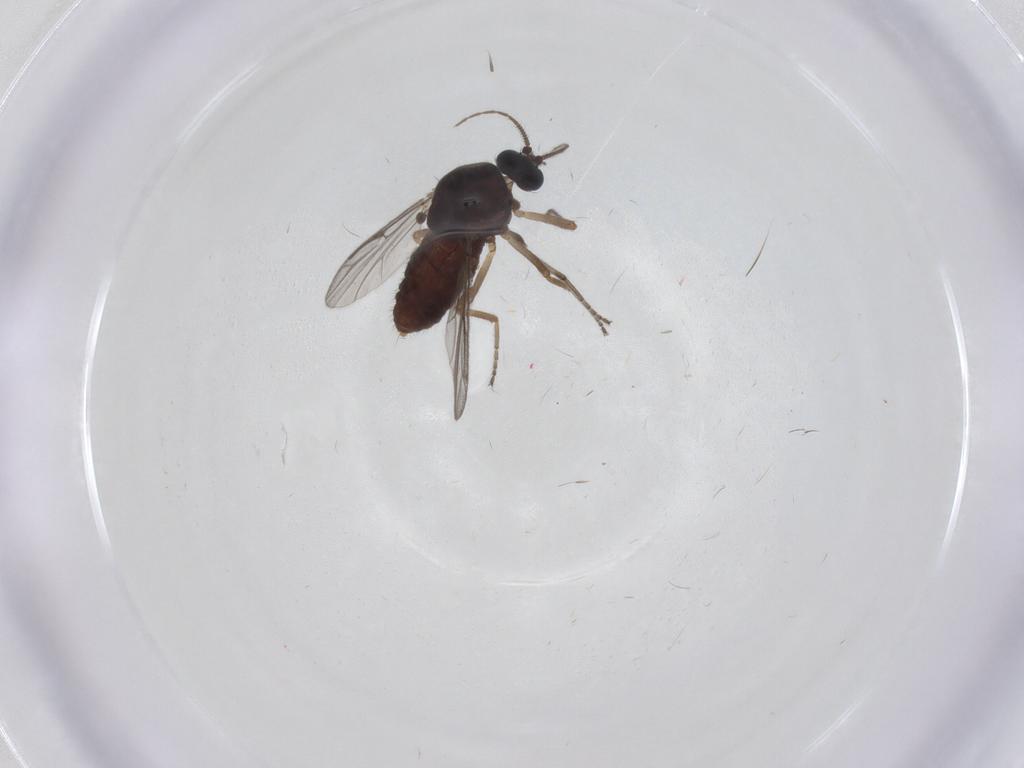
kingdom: Animalia
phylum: Arthropoda
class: Insecta
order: Diptera
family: Ceratopogonidae
